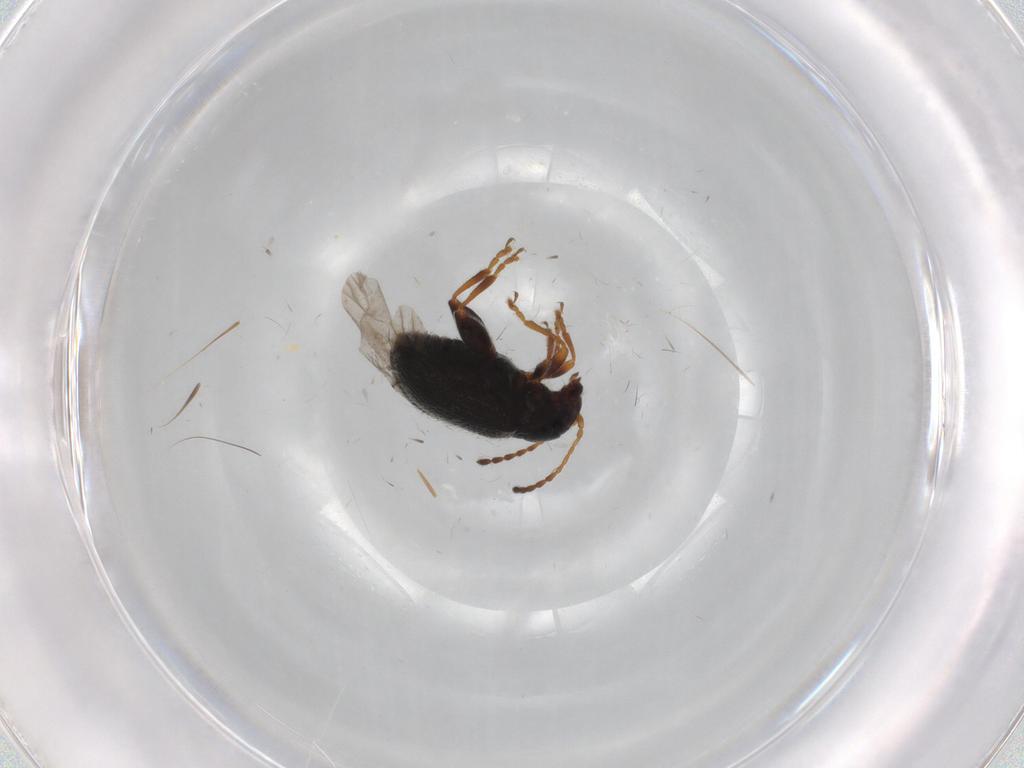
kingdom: Animalia
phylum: Arthropoda
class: Insecta
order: Coleoptera
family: Chrysomelidae
